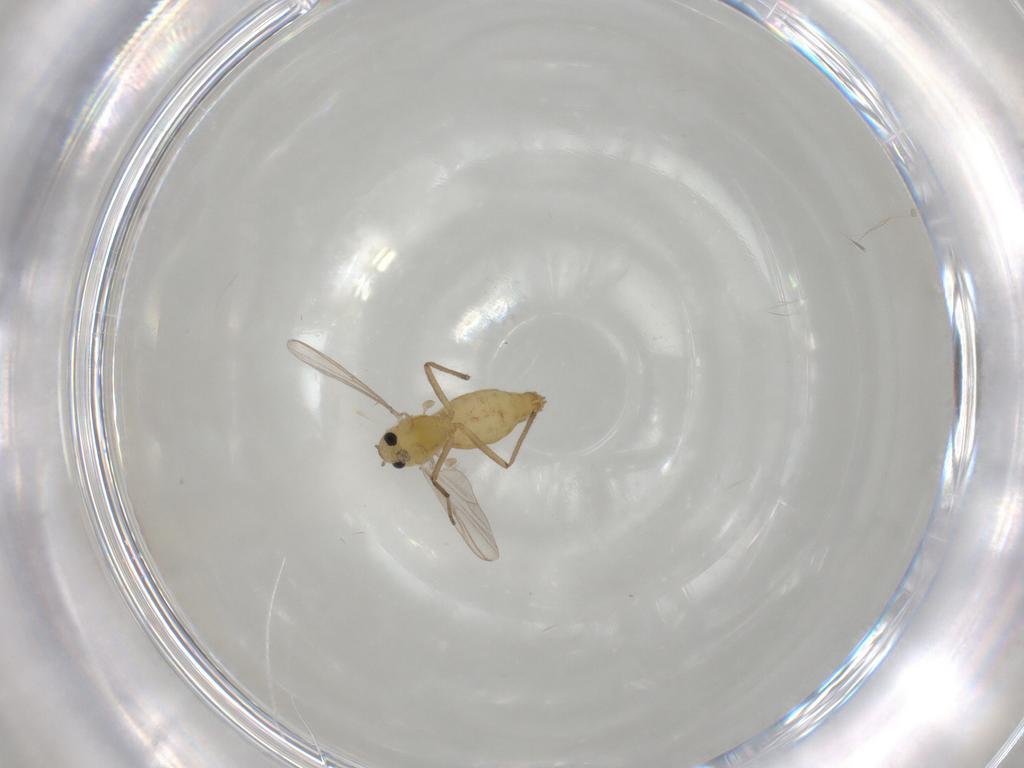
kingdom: Animalia
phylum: Arthropoda
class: Insecta
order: Diptera
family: Chironomidae
